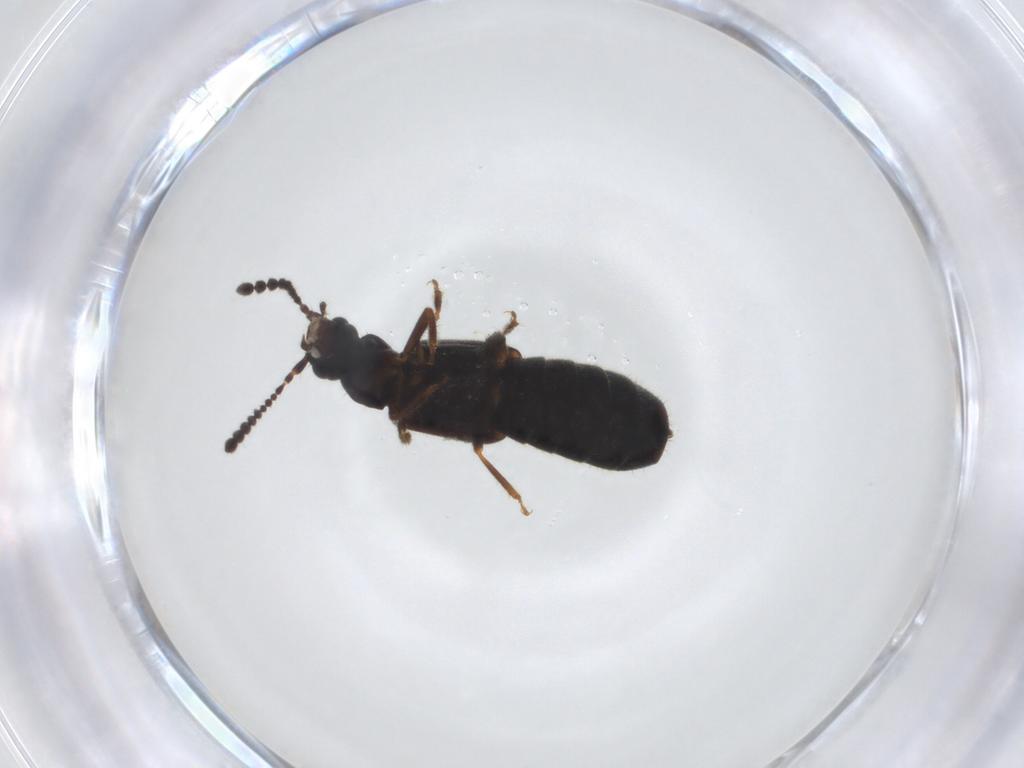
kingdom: Animalia
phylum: Arthropoda
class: Insecta
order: Coleoptera
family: Staphylinidae
